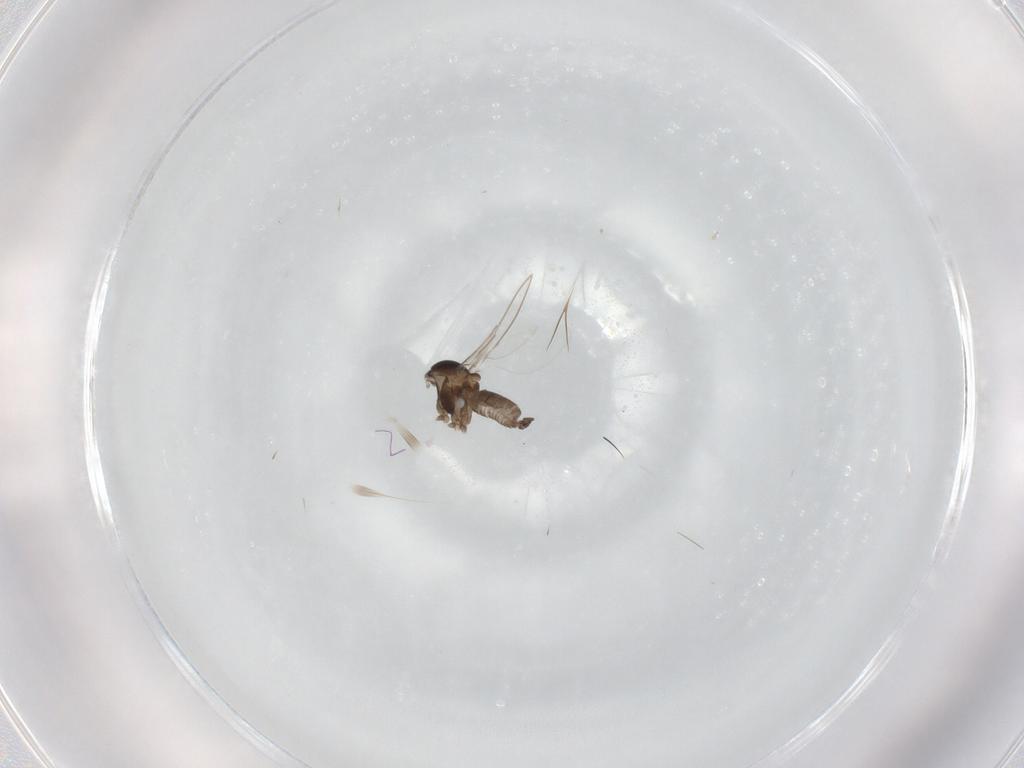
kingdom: Animalia
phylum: Arthropoda
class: Insecta
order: Diptera
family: Cecidomyiidae
